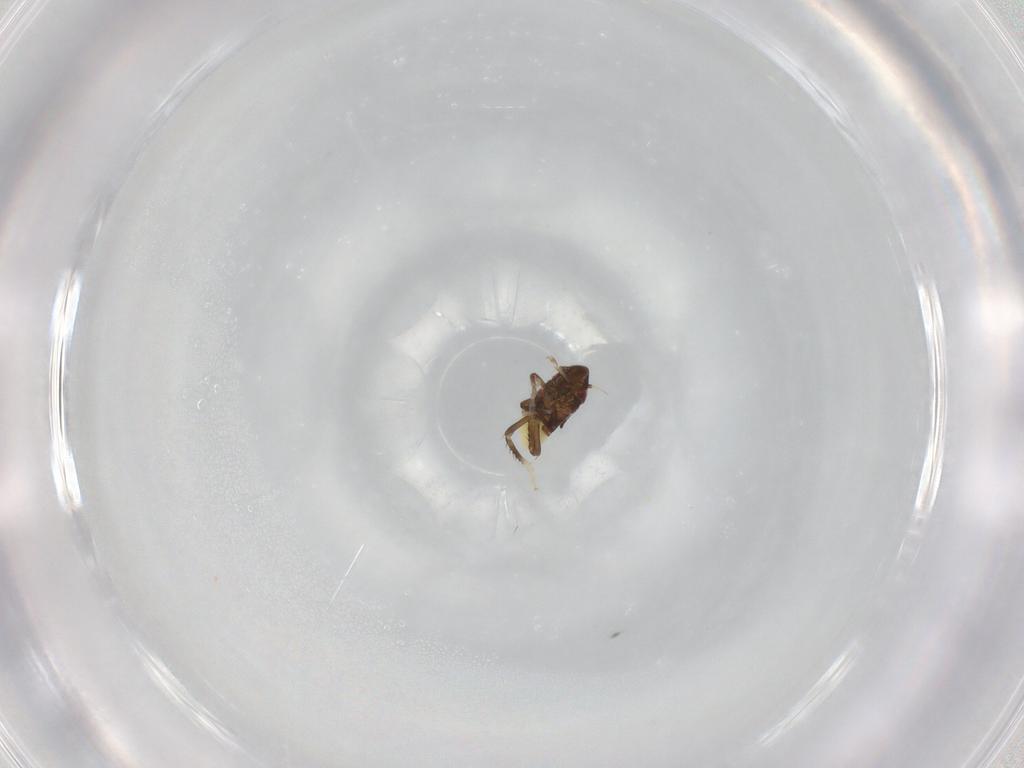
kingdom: Animalia
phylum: Arthropoda
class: Insecta
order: Hemiptera
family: Cicadellidae
